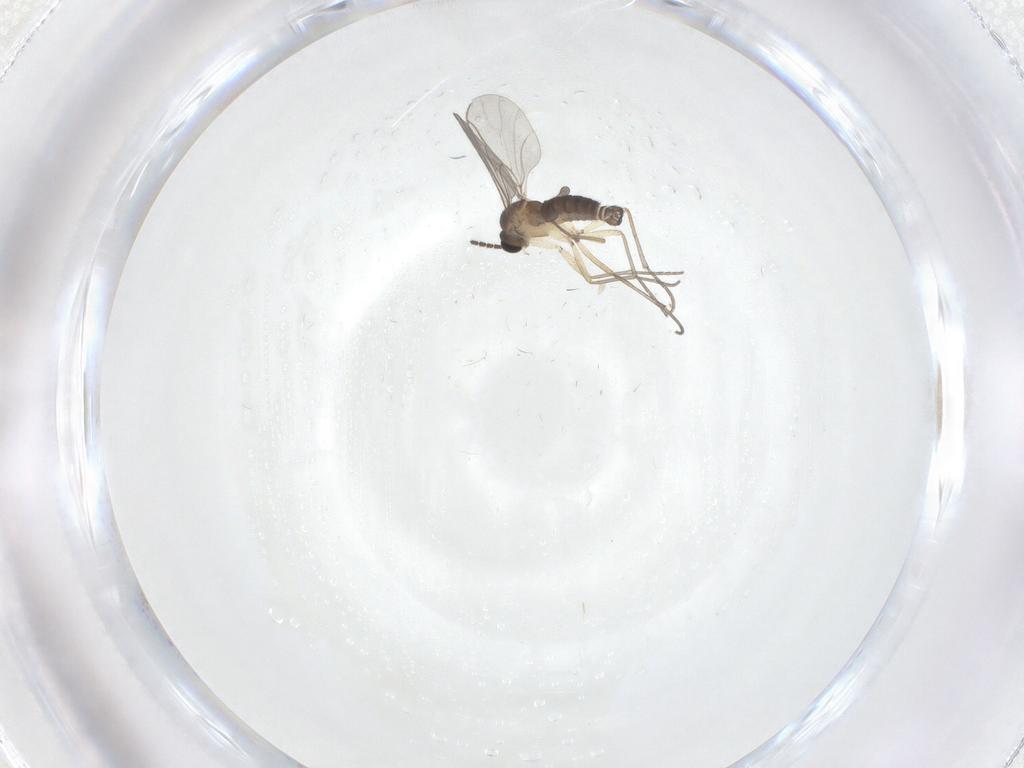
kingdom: Animalia
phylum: Arthropoda
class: Insecta
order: Diptera
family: Sciaridae
